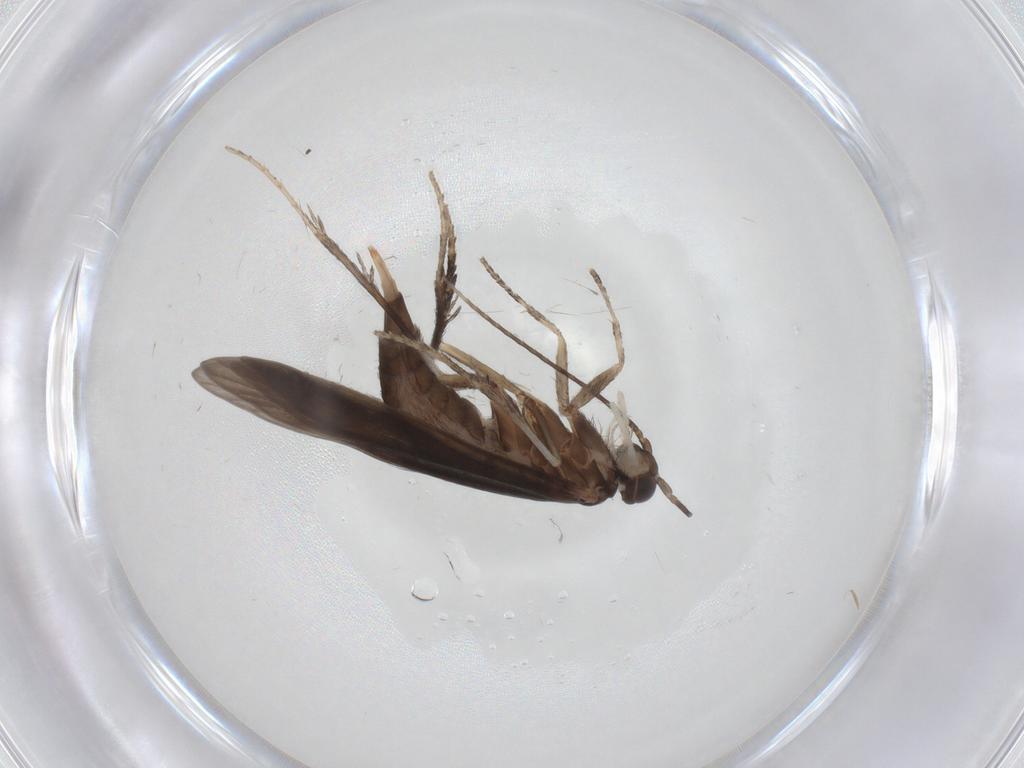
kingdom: Animalia
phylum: Arthropoda
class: Insecta
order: Trichoptera
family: Xiphocentronidae
